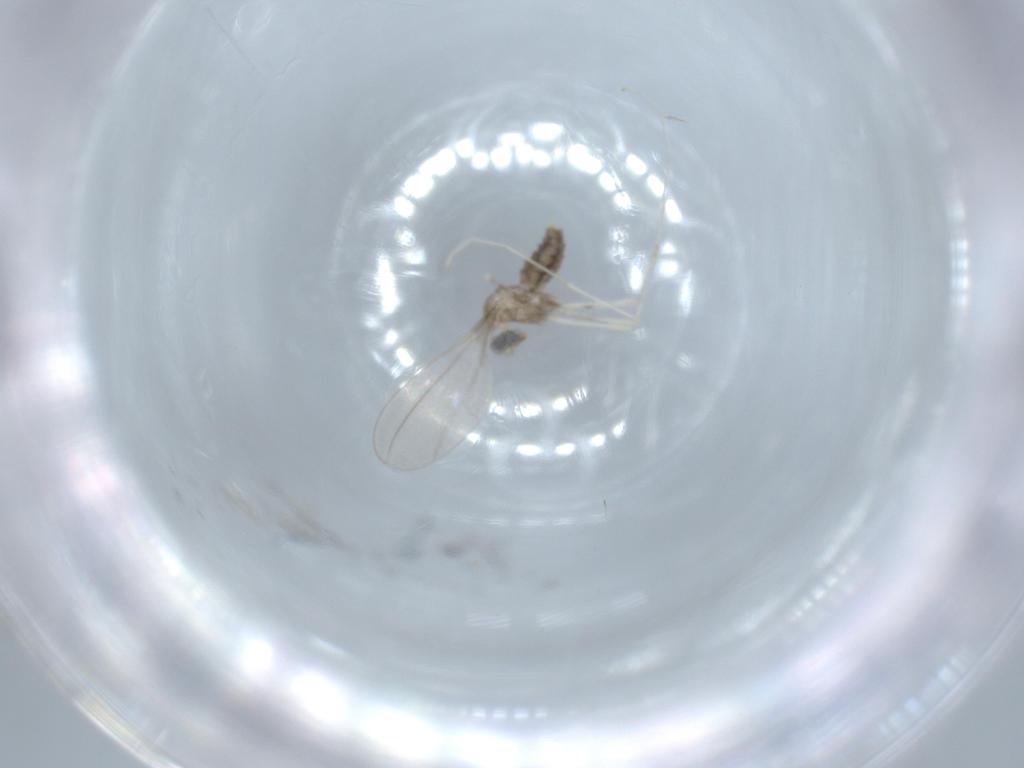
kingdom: Animalia
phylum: Arthropoda
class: Insecta
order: Diptera
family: Cecidomyiidae
